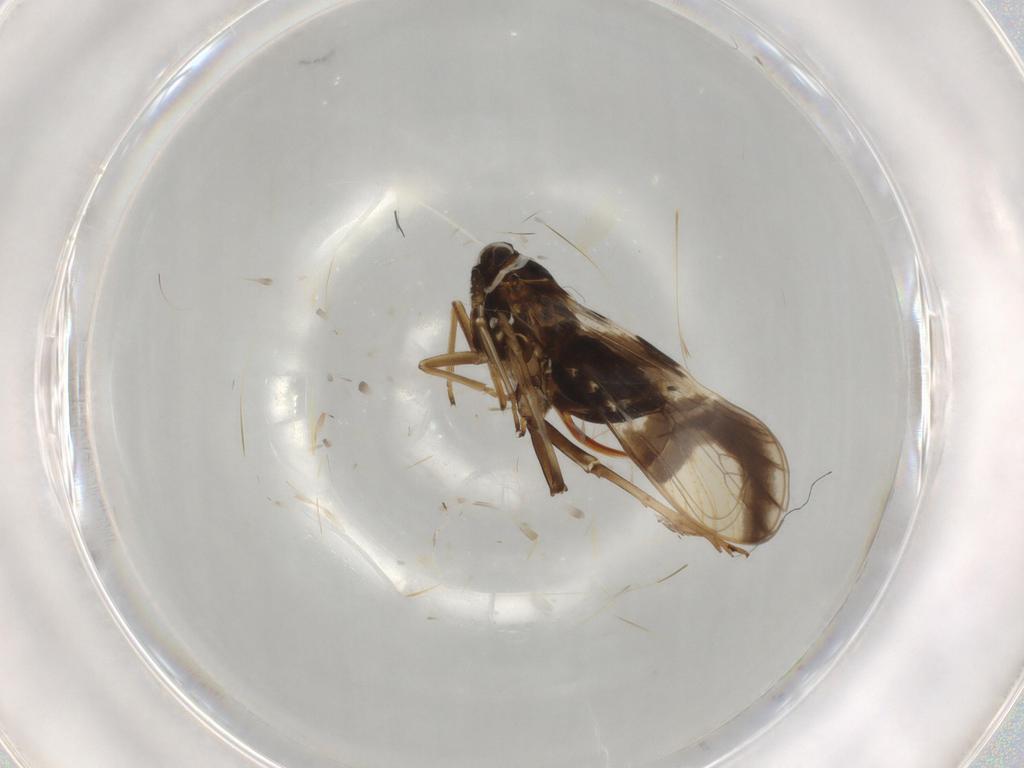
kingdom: Animalia
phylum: Arthropoda
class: Insecta
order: Hemiptera
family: Delphacidae
